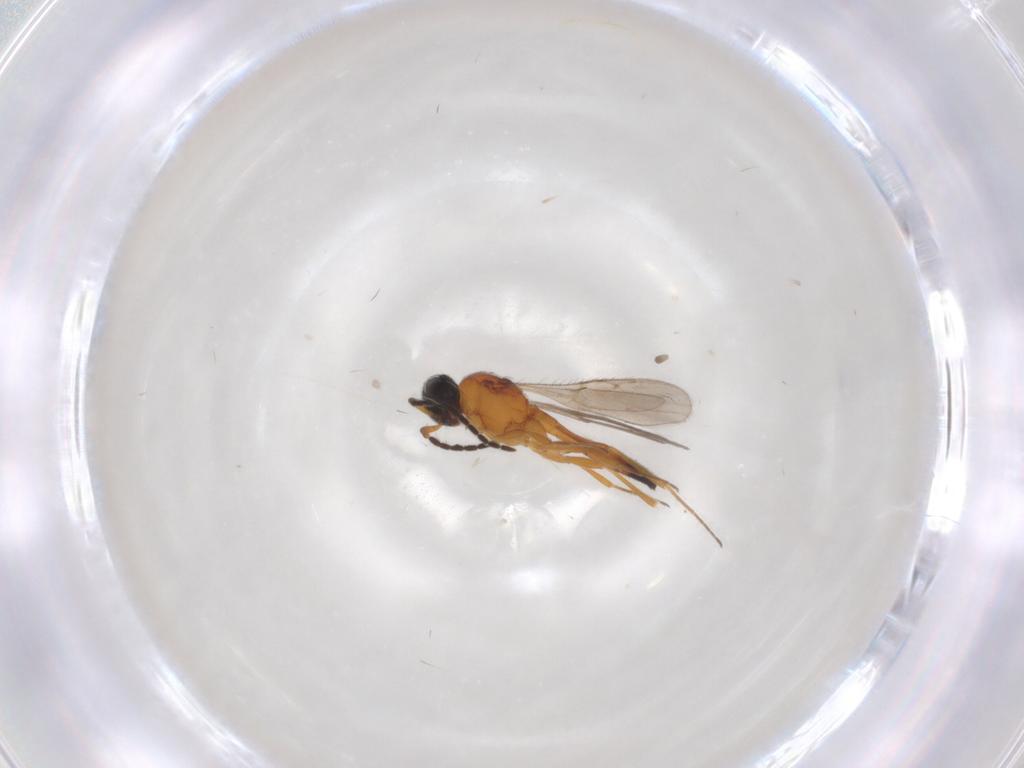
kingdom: Animalia
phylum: Arthropoda
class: Insecta
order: Hymenoptera
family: Scelionidae
